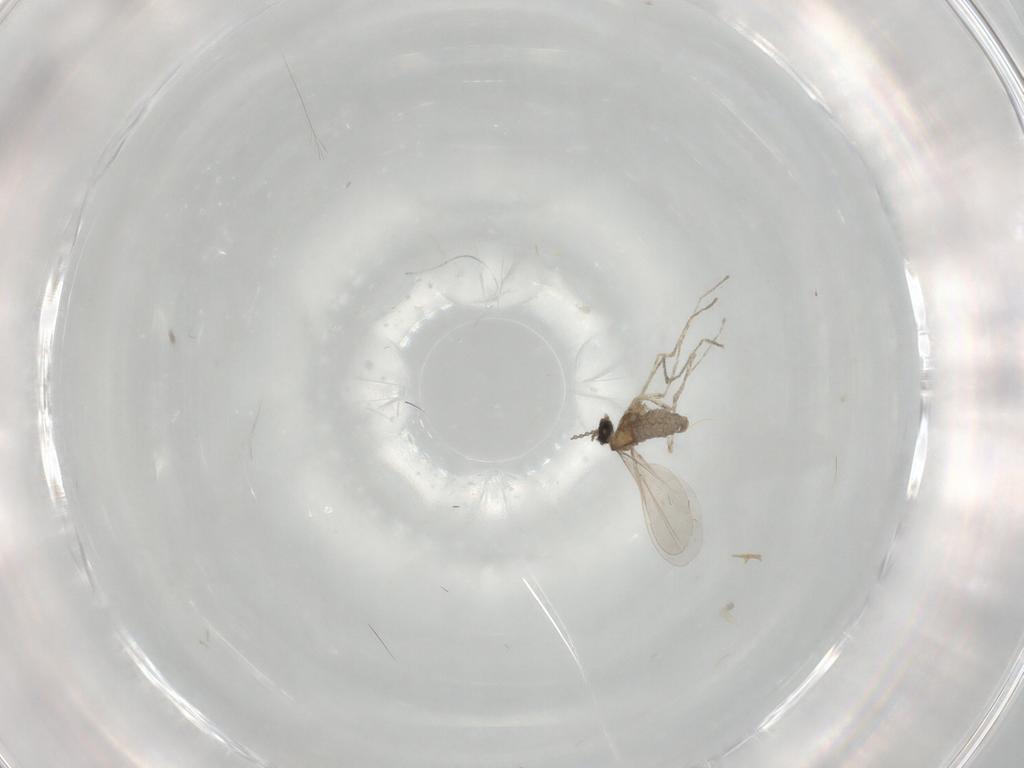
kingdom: Animalia
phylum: Arthropoda
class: Insecta
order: Diptera
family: Cecidomyiidae
